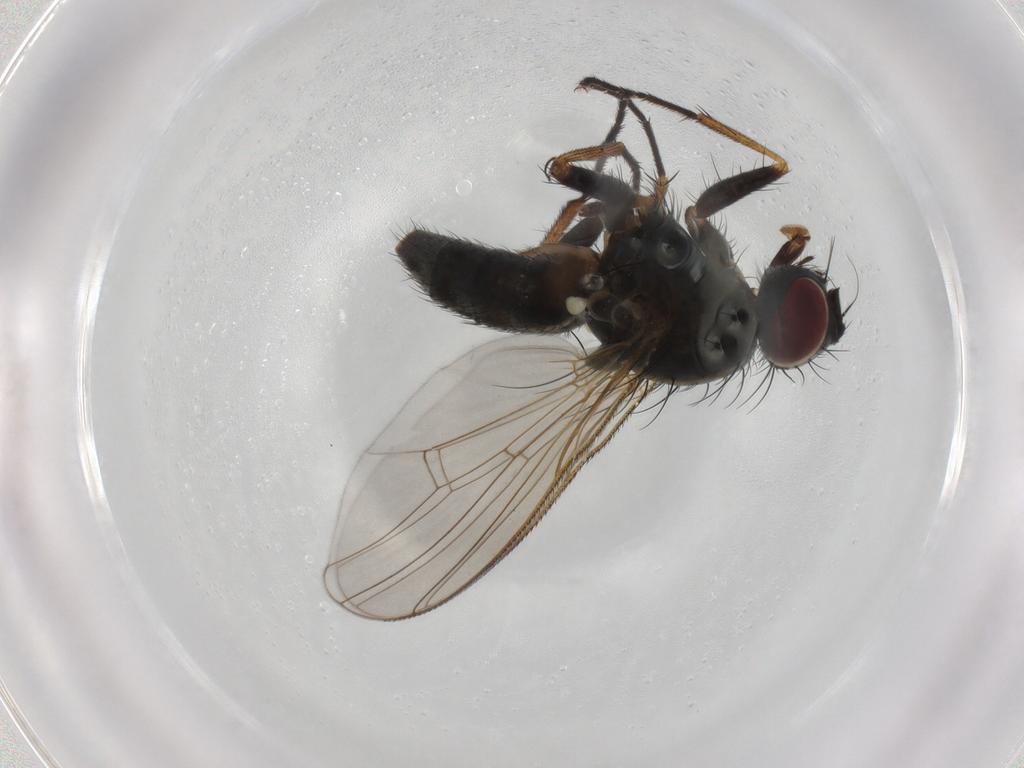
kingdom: Animalia
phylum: Arthropoda
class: Insecta
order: Diptera
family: Muscidae
